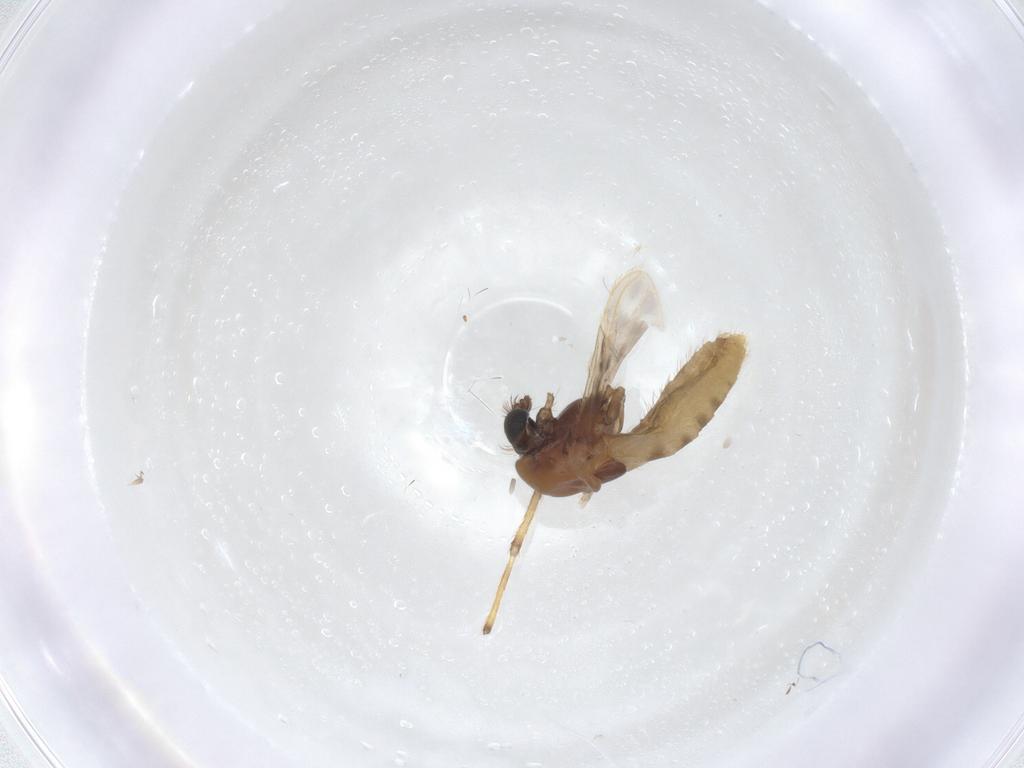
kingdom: Animalia
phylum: Arthropoda
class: Insecta
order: Diptera
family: Chironomidae
